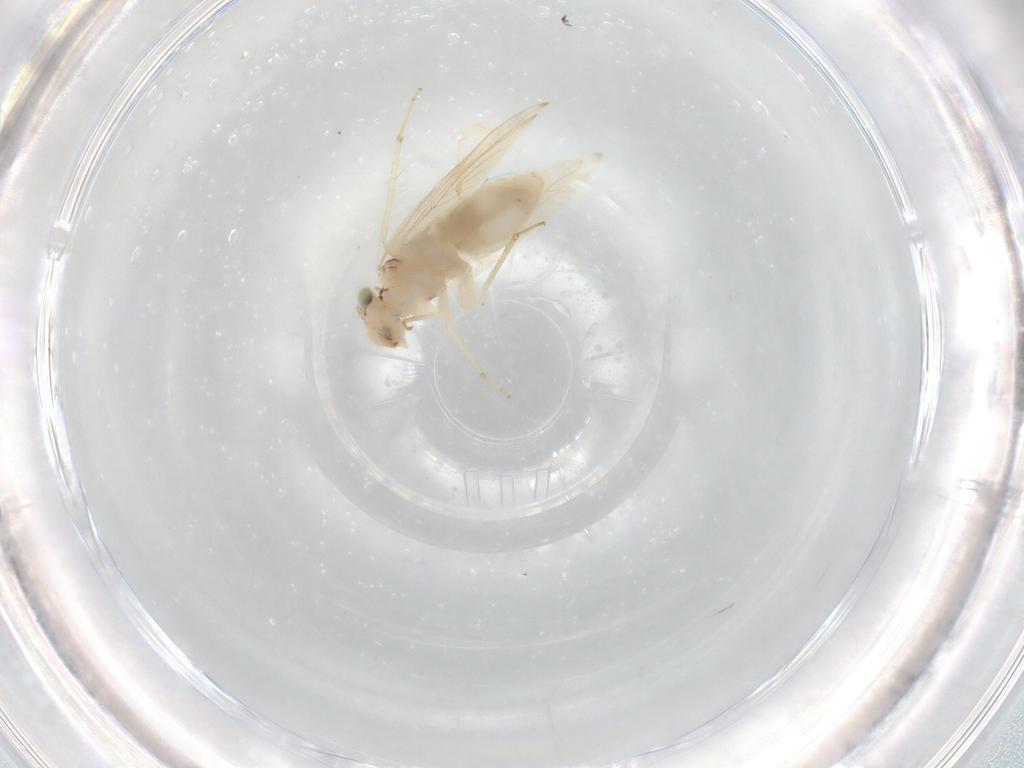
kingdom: Animalia
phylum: Arthropoda
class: Insecta
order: Psocodea
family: Lepidopsocidae
